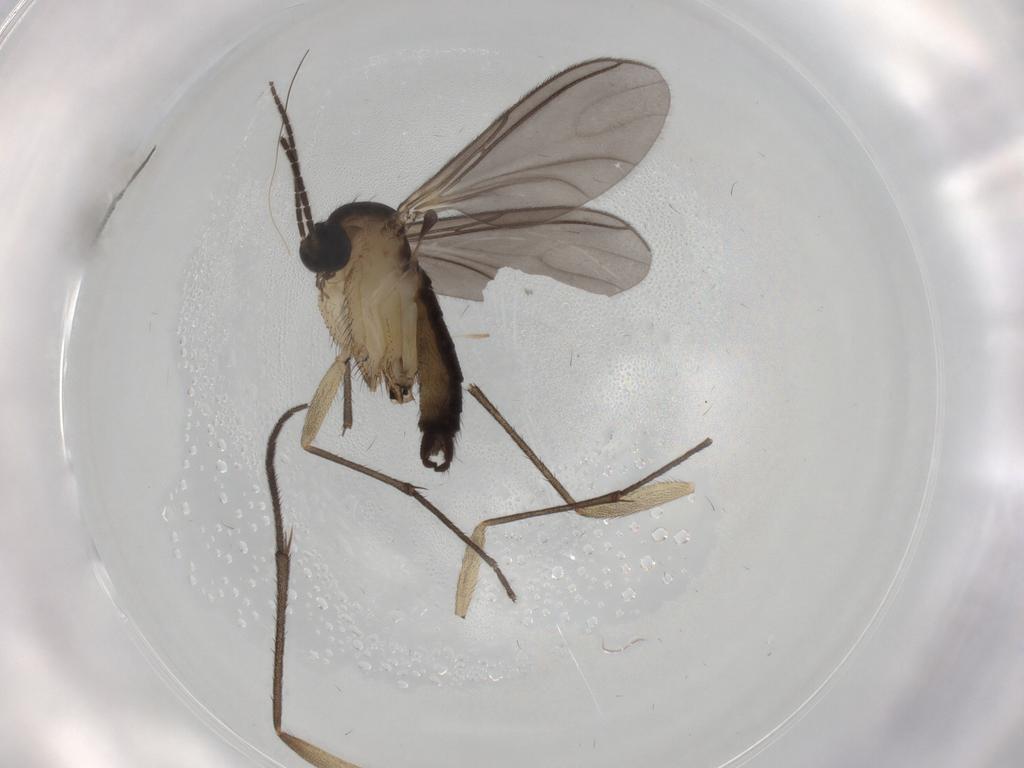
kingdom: Animalia
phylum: Arthropoda
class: Insecta
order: Diptera
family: Sciaridae
